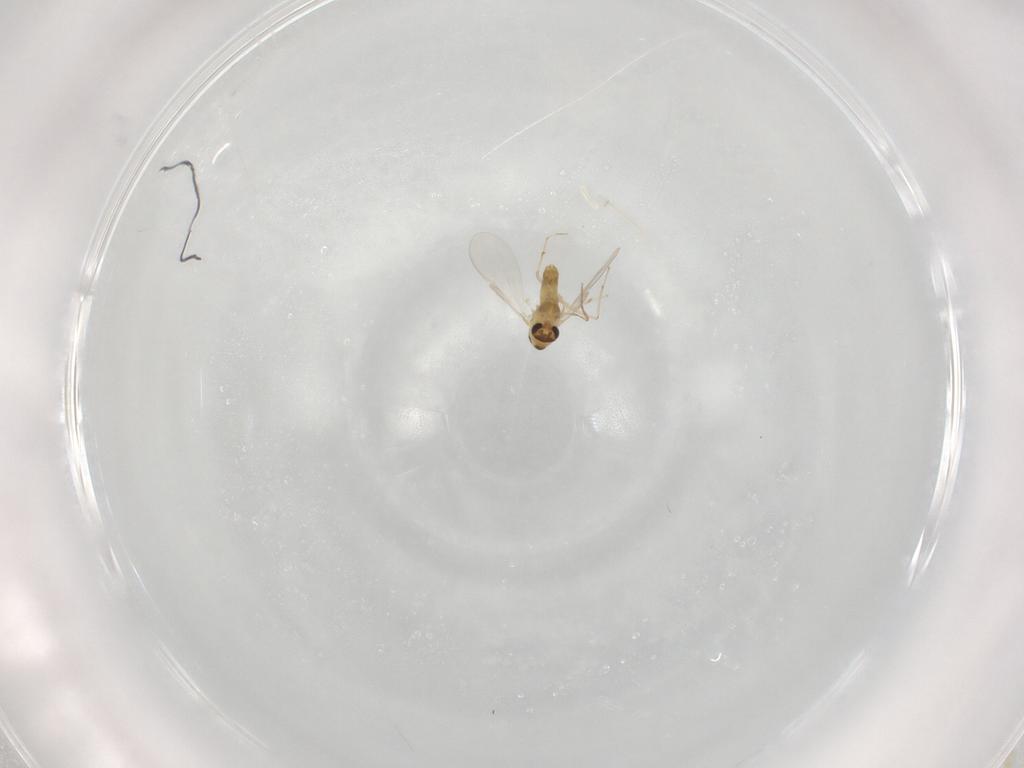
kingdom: Animalia
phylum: Arthropoda
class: Insecta
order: Diptera
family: Chironomidae
